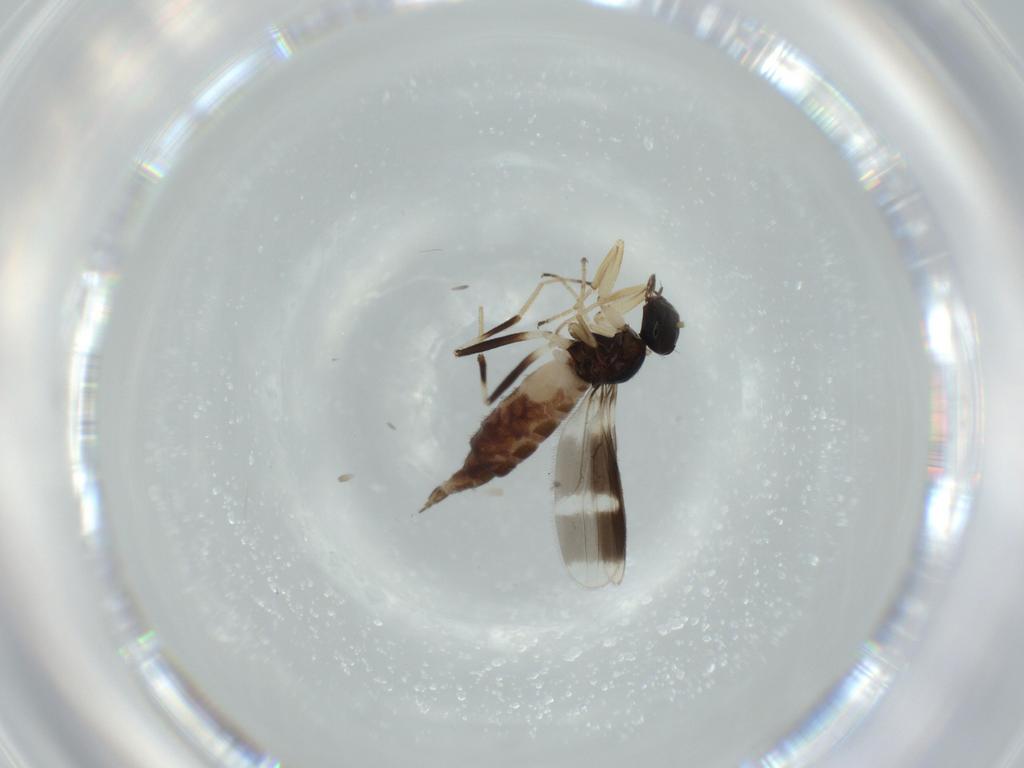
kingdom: Animalia
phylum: Arthropoda
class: Insecta
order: Diptera
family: Hybotidae
